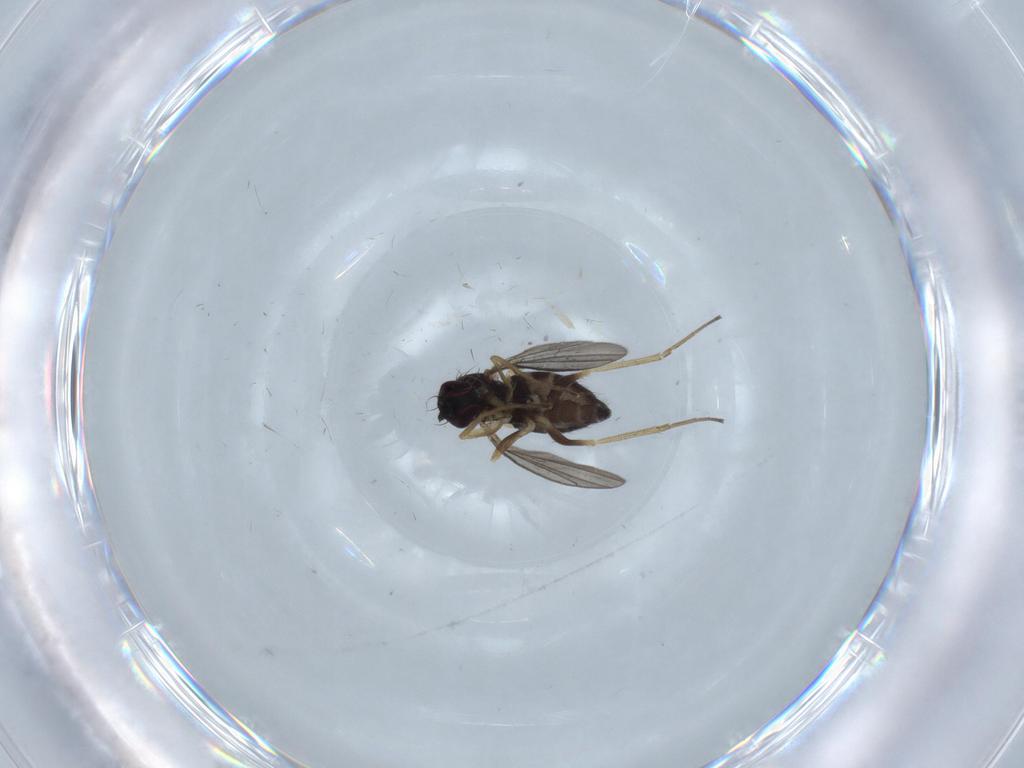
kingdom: Animalia
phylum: Arthropoda
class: Insecta
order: Diptera
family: Dolichopodidae
